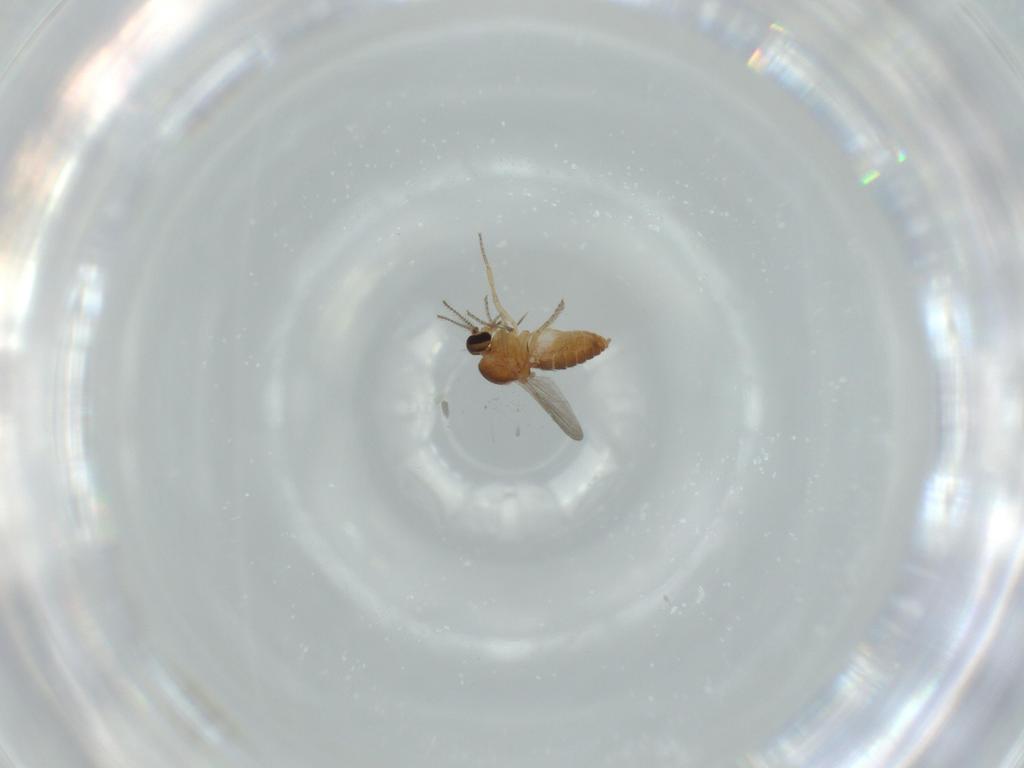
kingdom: Animalia
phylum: Arthropoda
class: Insecta
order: Diptera
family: Ceratopogonidae
